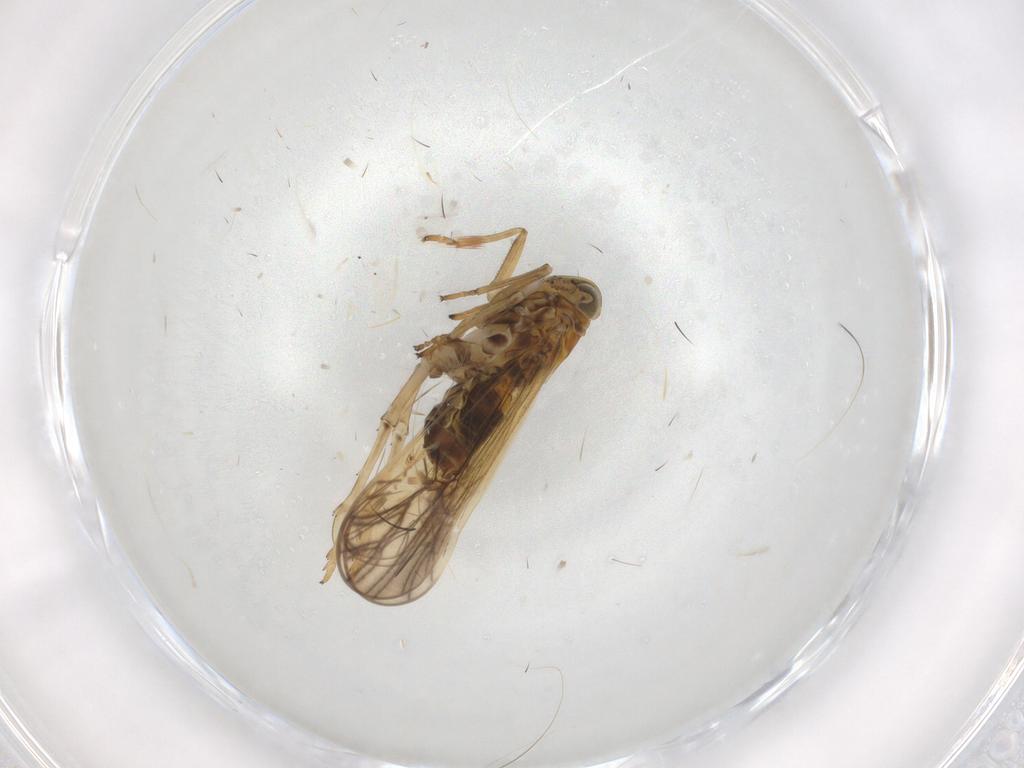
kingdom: Animalia
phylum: Arthropoda
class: Insecta
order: Hemiptera
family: Delphacidae
